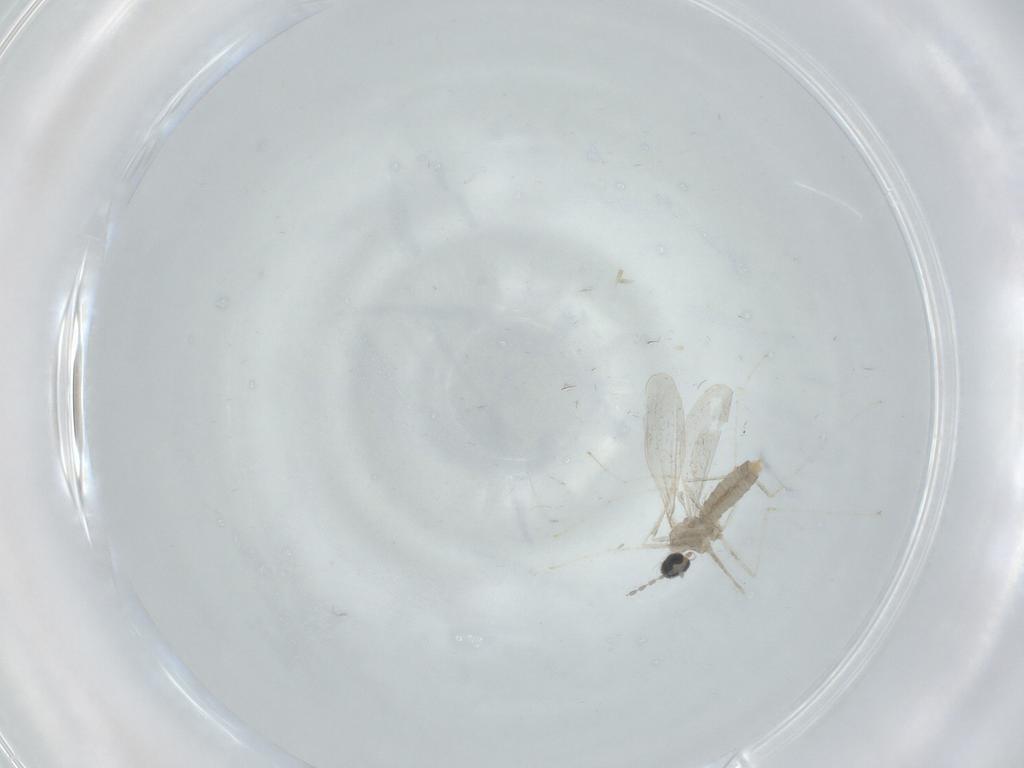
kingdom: Animalia
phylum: Arthropoda
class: Insecta
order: Diptera
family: Cecidomyiidae
